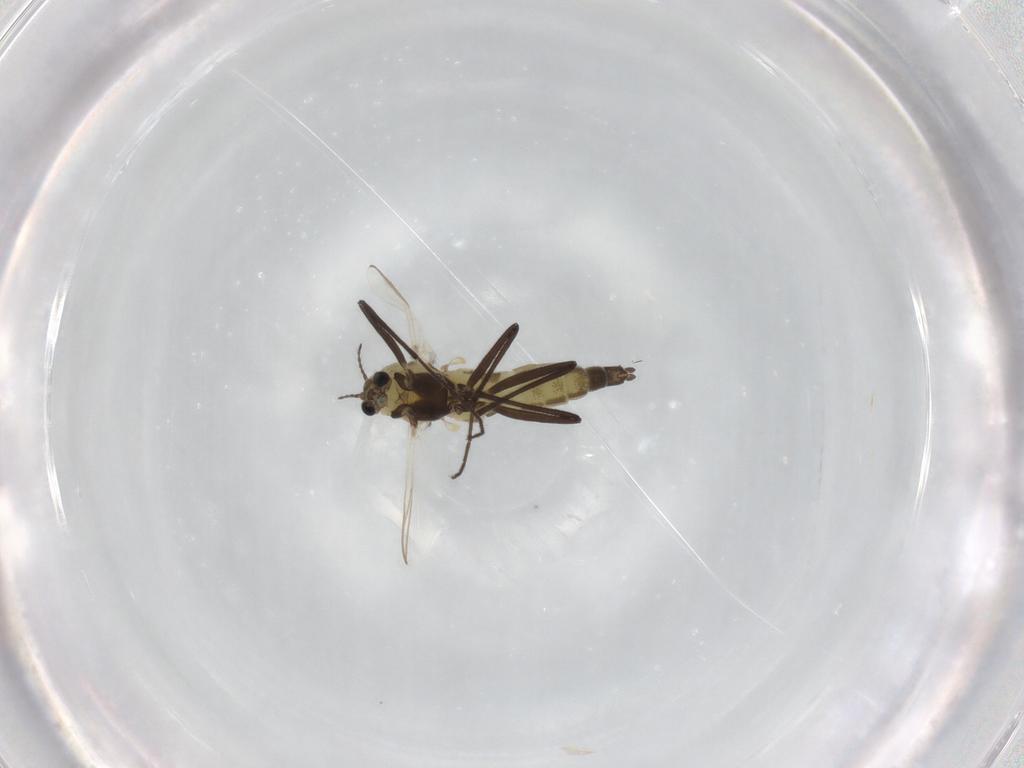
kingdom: Animalia
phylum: Arthropoda
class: Insecta
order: Diptera
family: Chironomidae
